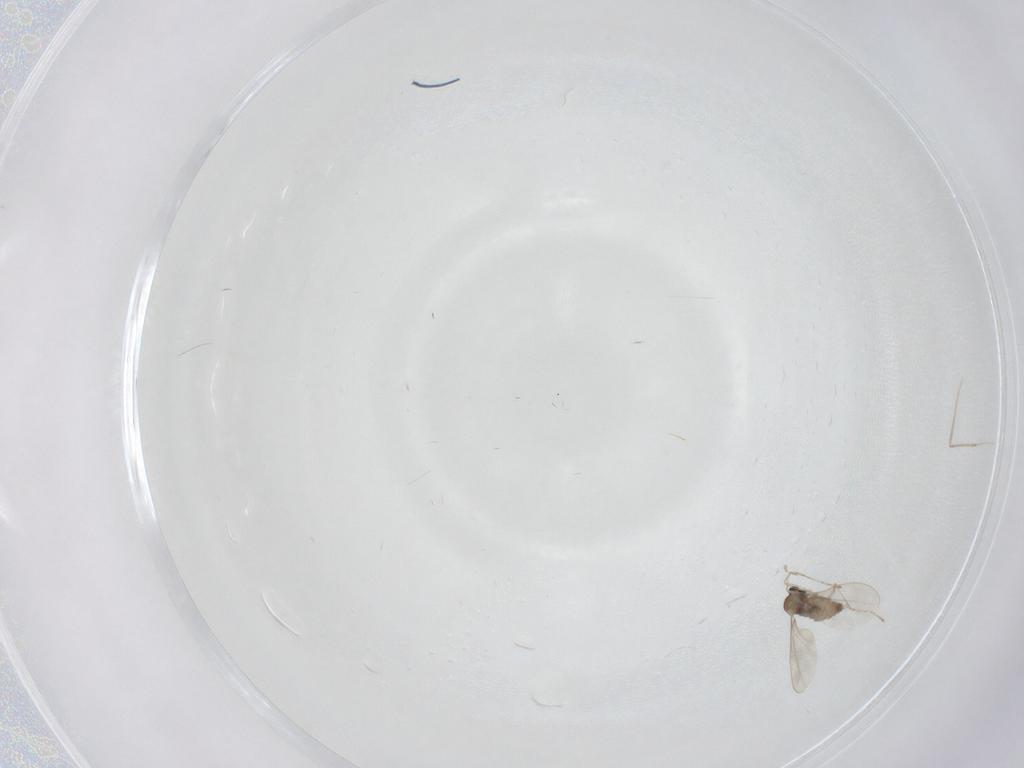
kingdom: Animalia
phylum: Arthropoda
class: Insecta
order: Diptera
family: Cecidomyiidae
